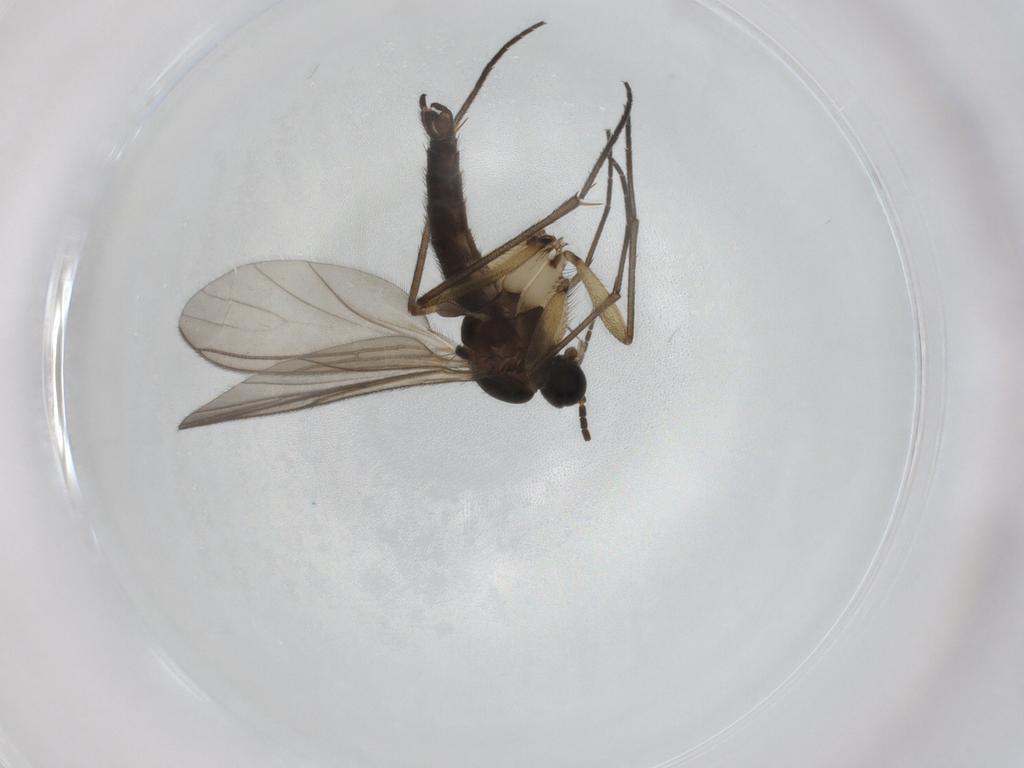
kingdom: Animalia
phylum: Arthropoda
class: Insecta
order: Diptera
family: Sciaridae
